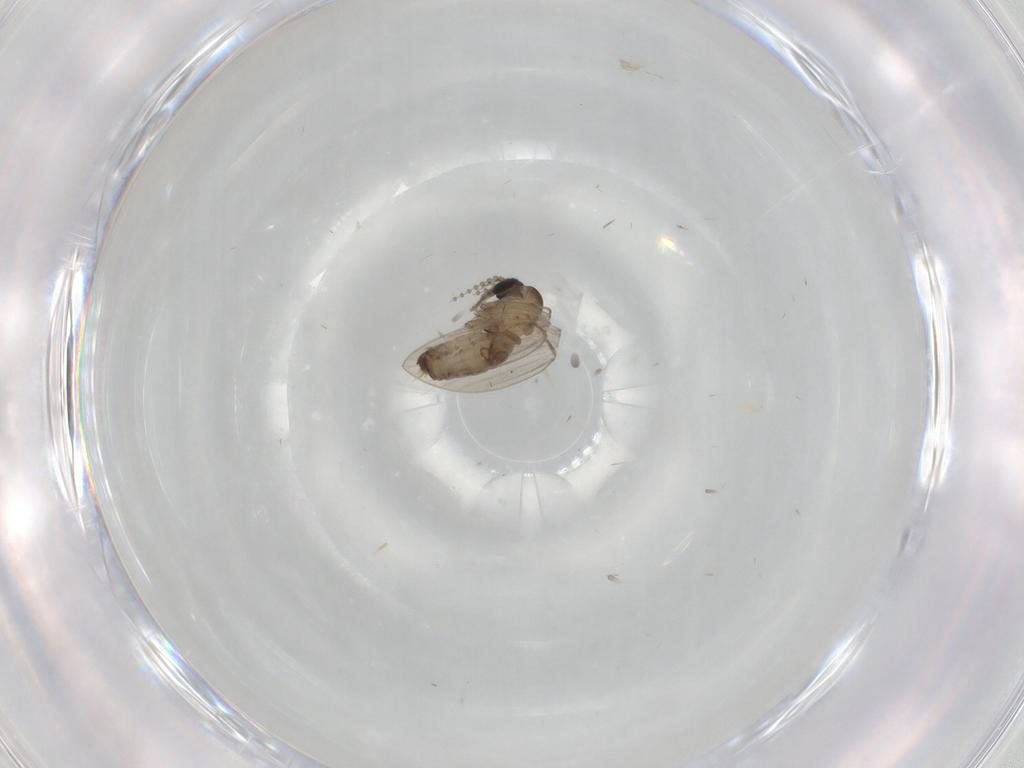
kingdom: Animalia
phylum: Arthropoda
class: Insecta
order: Diptera
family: Psychodidae
